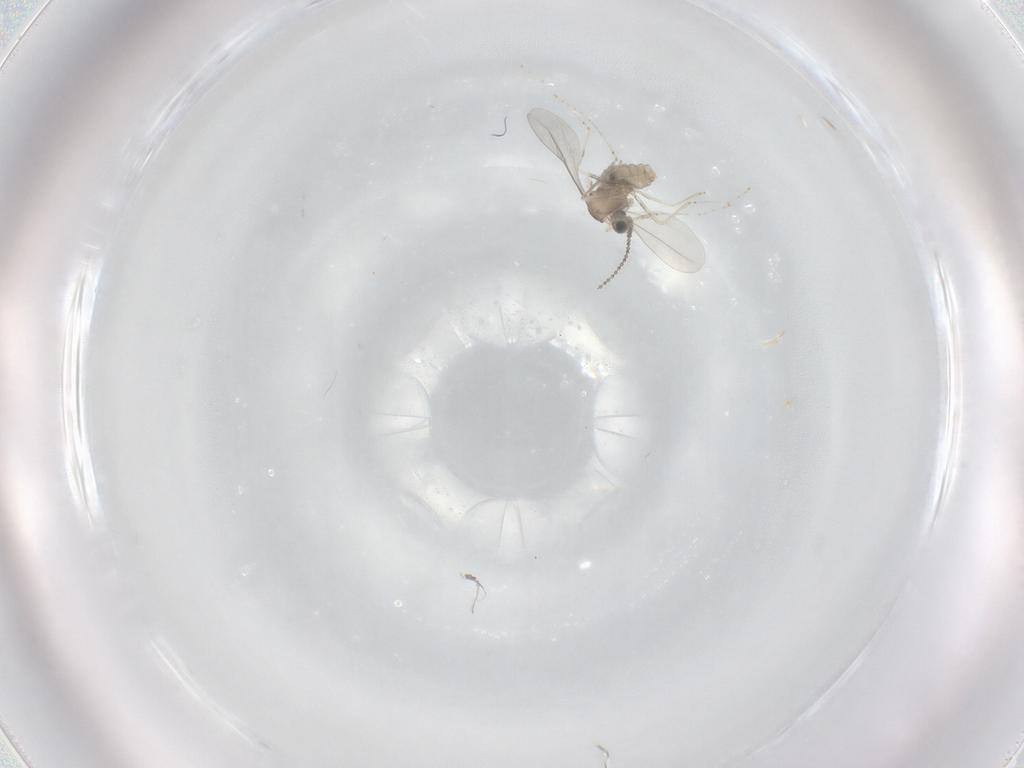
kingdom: Animalia
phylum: Arthropoda
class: Insecta
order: Diptera
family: Cecidomyiidae
